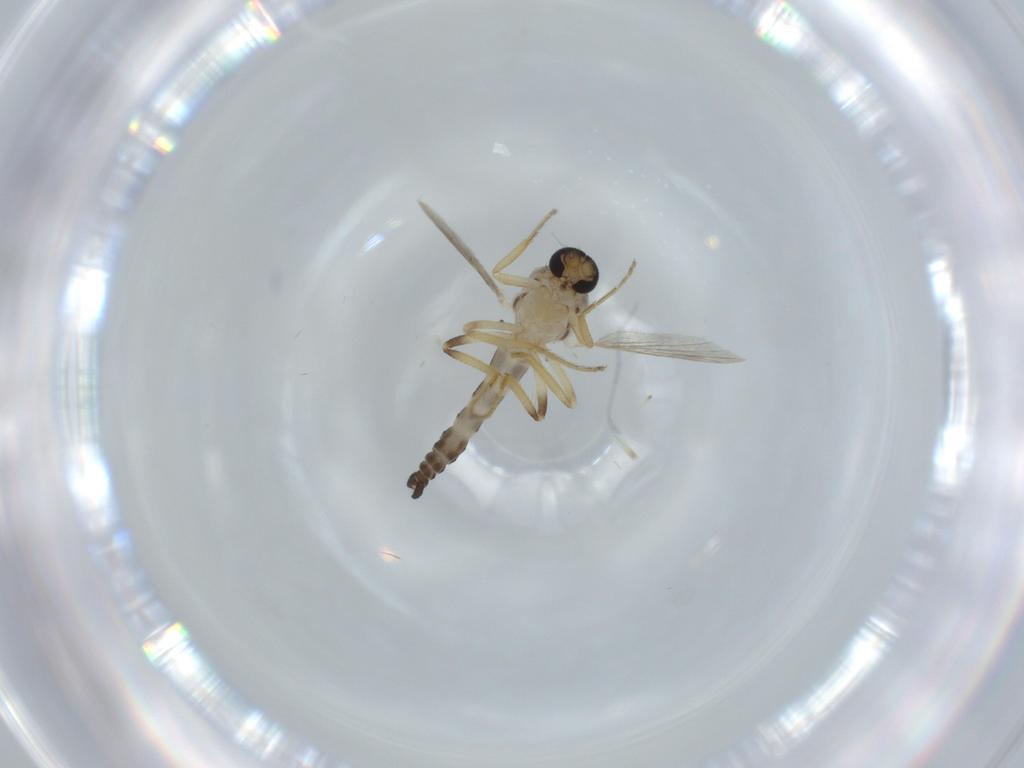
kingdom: Animalia
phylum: Arthropoda
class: Insecta
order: Diptera
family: Ceratopogonidae
